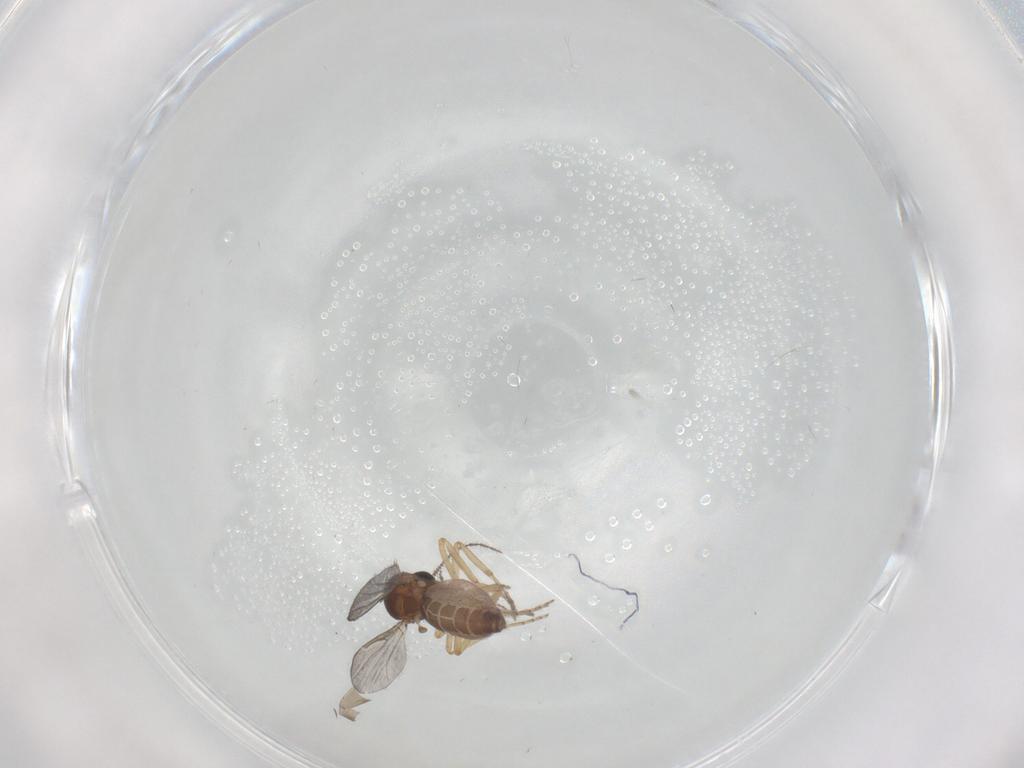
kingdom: Animalia
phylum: Arthropoda
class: Insecta
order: Diptera
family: Limoniidae
